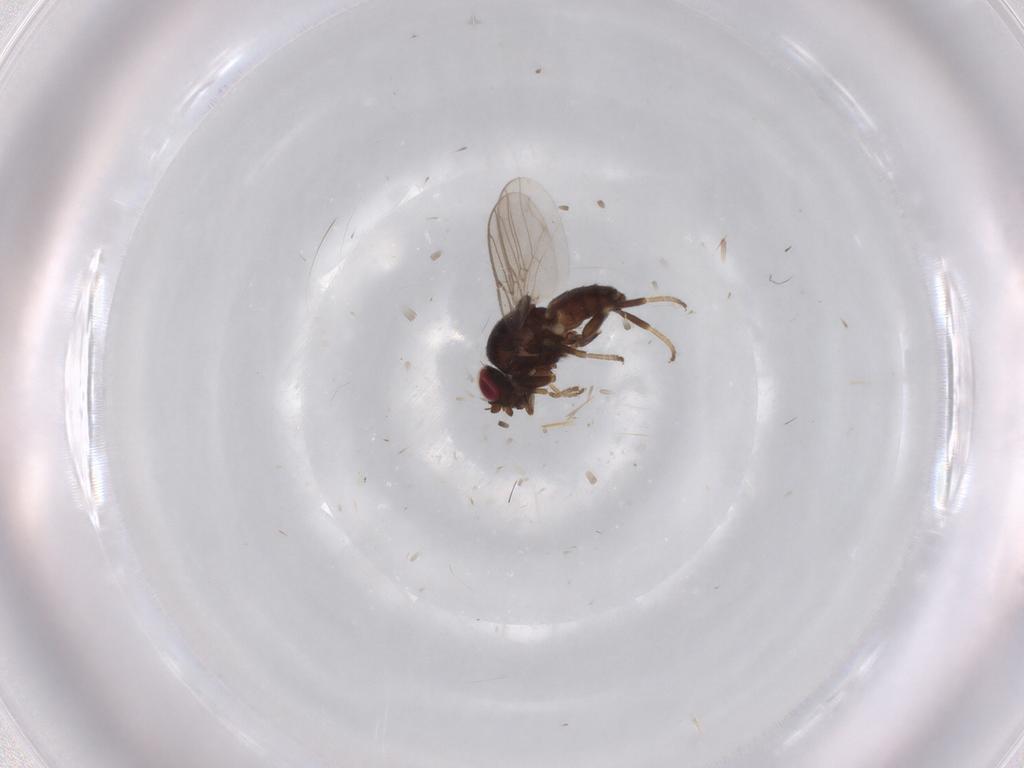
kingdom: Animalia
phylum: Arthropoda
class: Insecta
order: Diptera
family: Chloropidae
